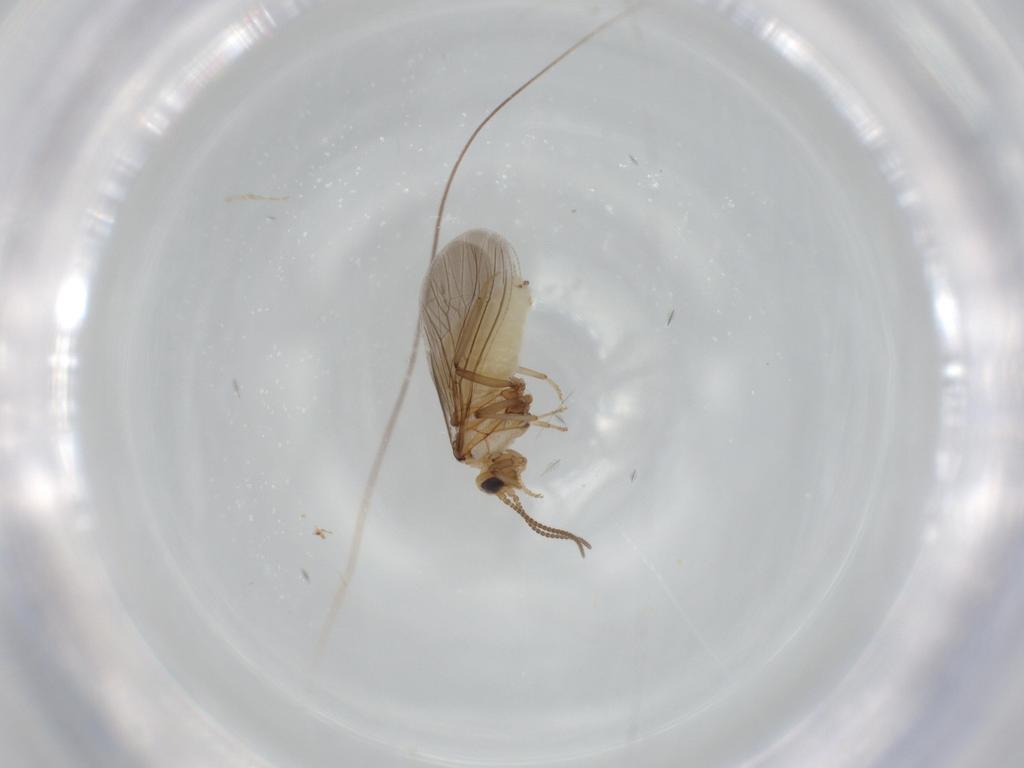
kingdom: Animalia
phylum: Arthropoda
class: Insecta
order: Neuroptera
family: Coniopterygidae
